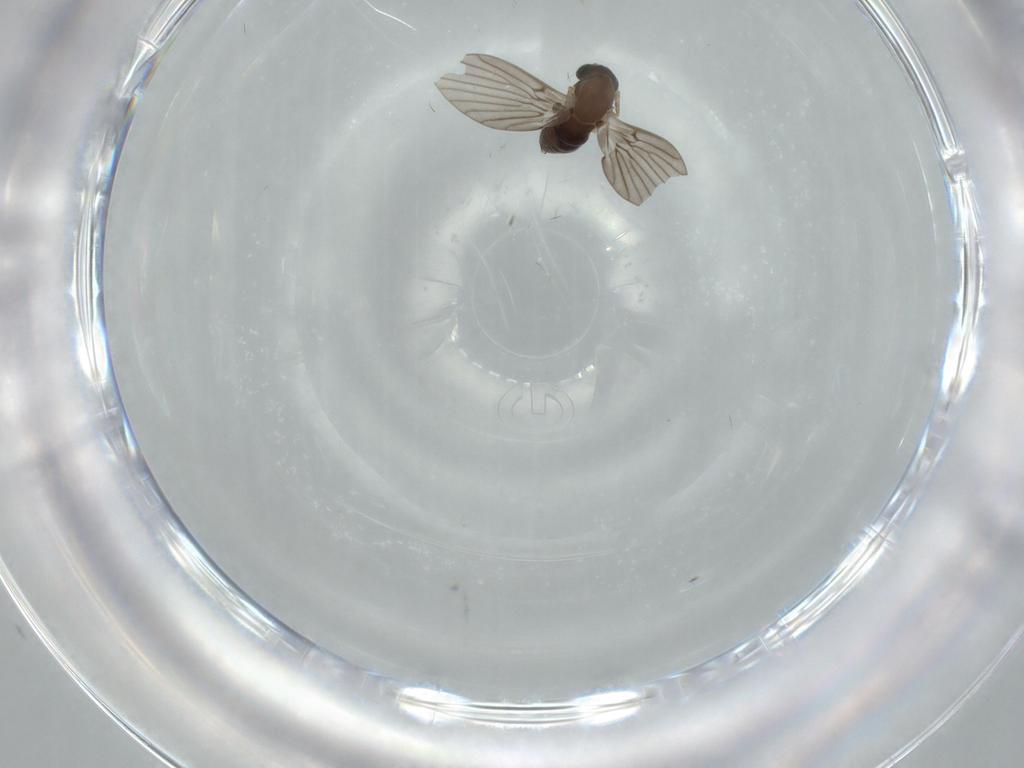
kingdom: Animalia
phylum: Arthropoda
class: Insecta
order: Diptera
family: Psychodidae
